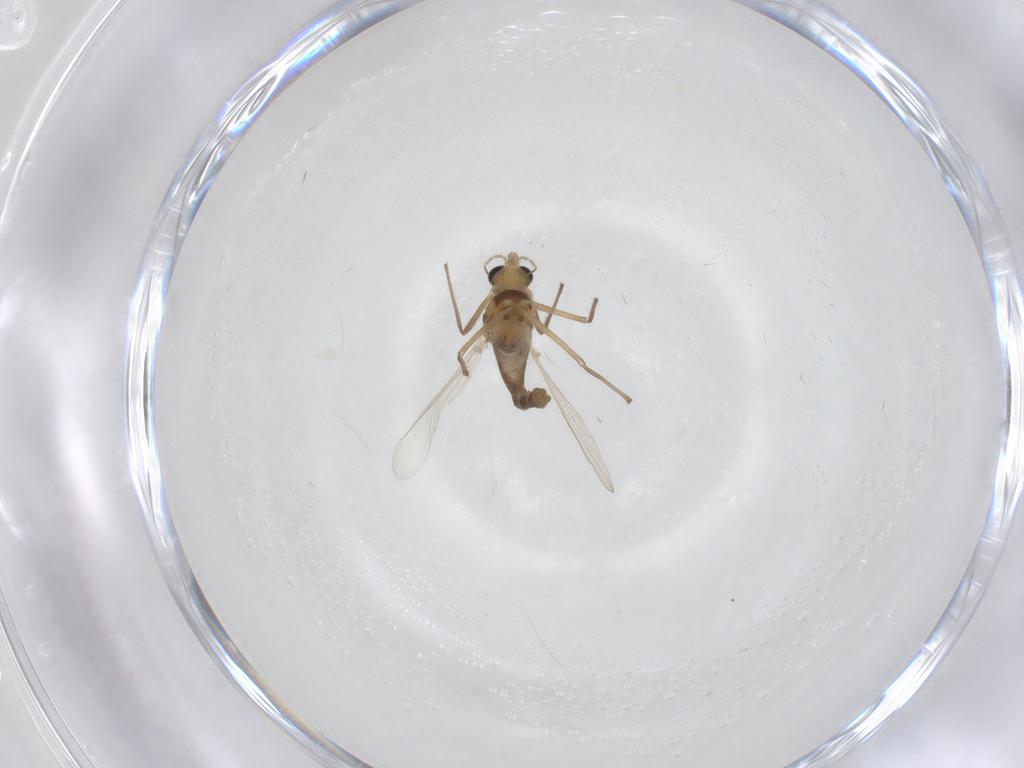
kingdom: Animalia
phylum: Arthropoda
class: Insecta
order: Diptera
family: Chironomidae
